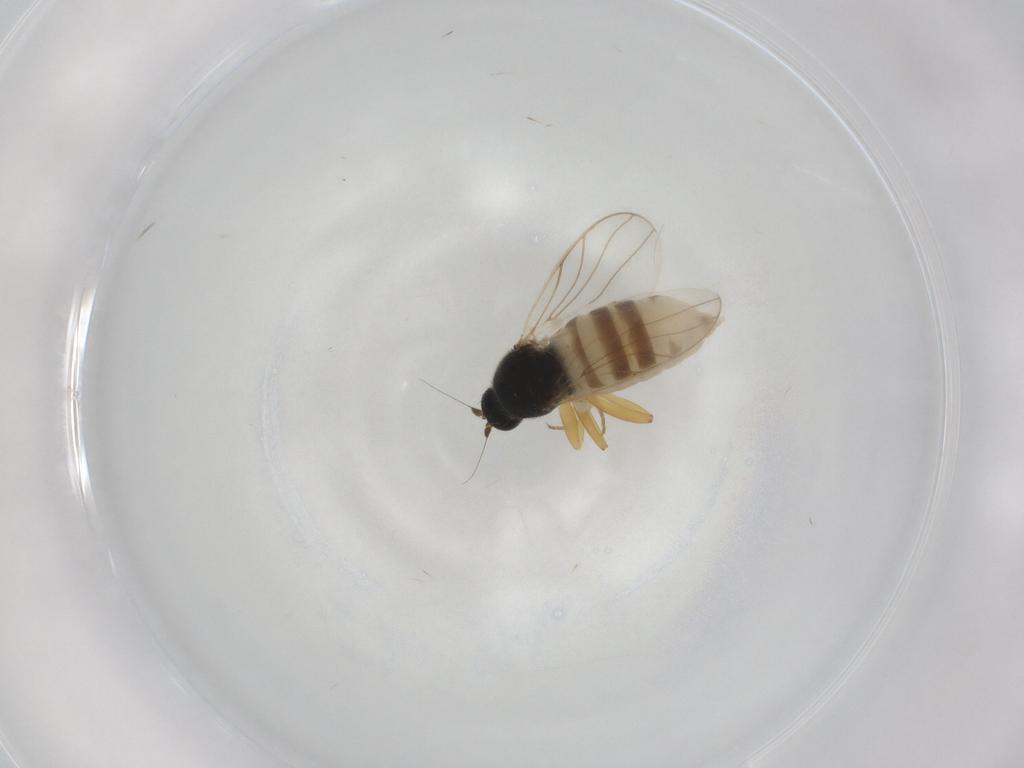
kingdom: Animalia
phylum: Arthropoda
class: Insecta
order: Diptera
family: Hybotidae
